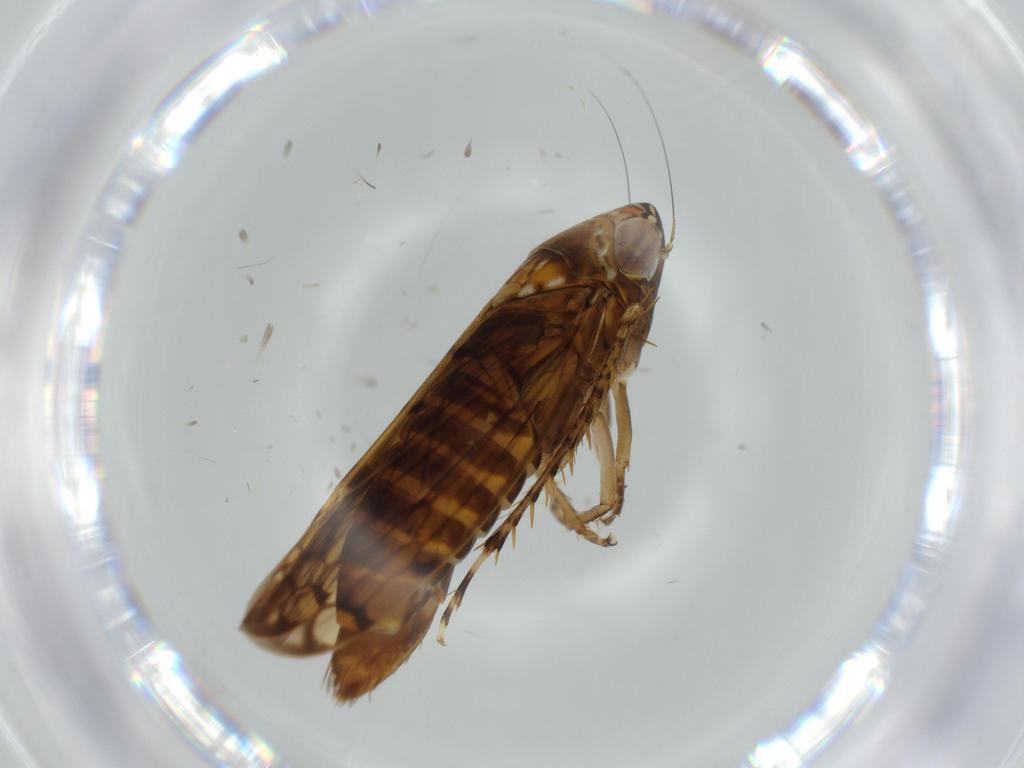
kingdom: Animalia
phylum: Arthropoda
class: Insecta
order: Hemiptera
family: Cicadellidae
